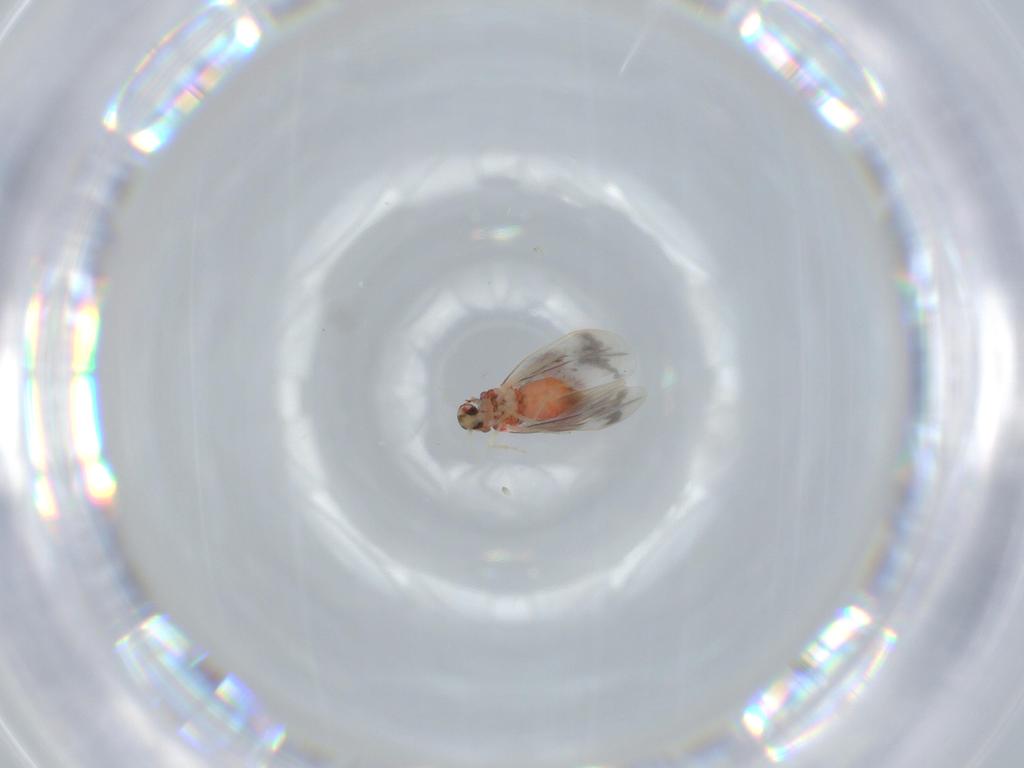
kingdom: Animalia
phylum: Arthropoda
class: Insecta
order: Hemiptera
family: Aleyrodidae
